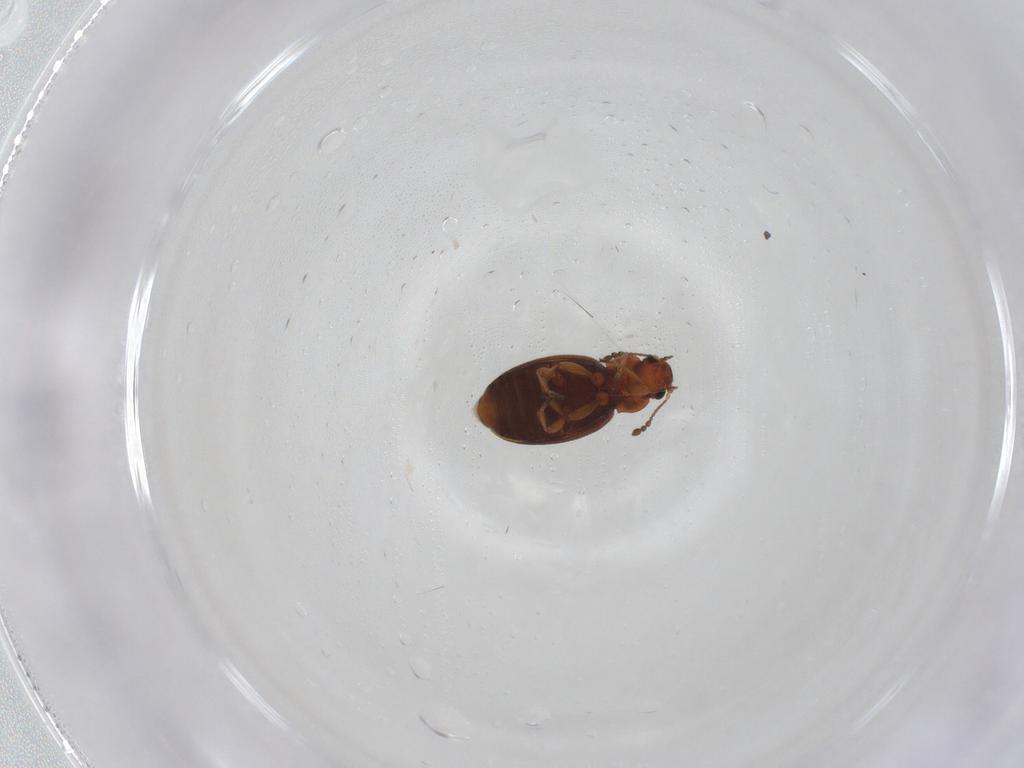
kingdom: Animalia
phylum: Arthropoda
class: Insecta
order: Coleoptera
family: Latridiidae
